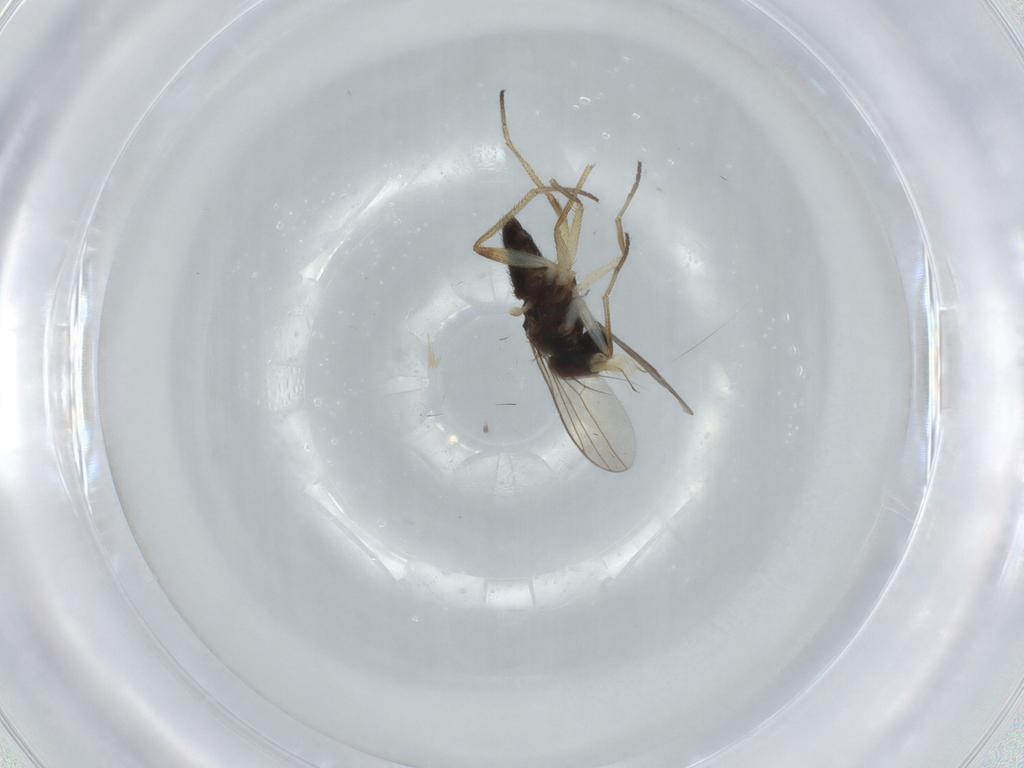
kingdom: Animalia
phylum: Arthropoda
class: Insecta
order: Diptera
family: Dolichopodidae
